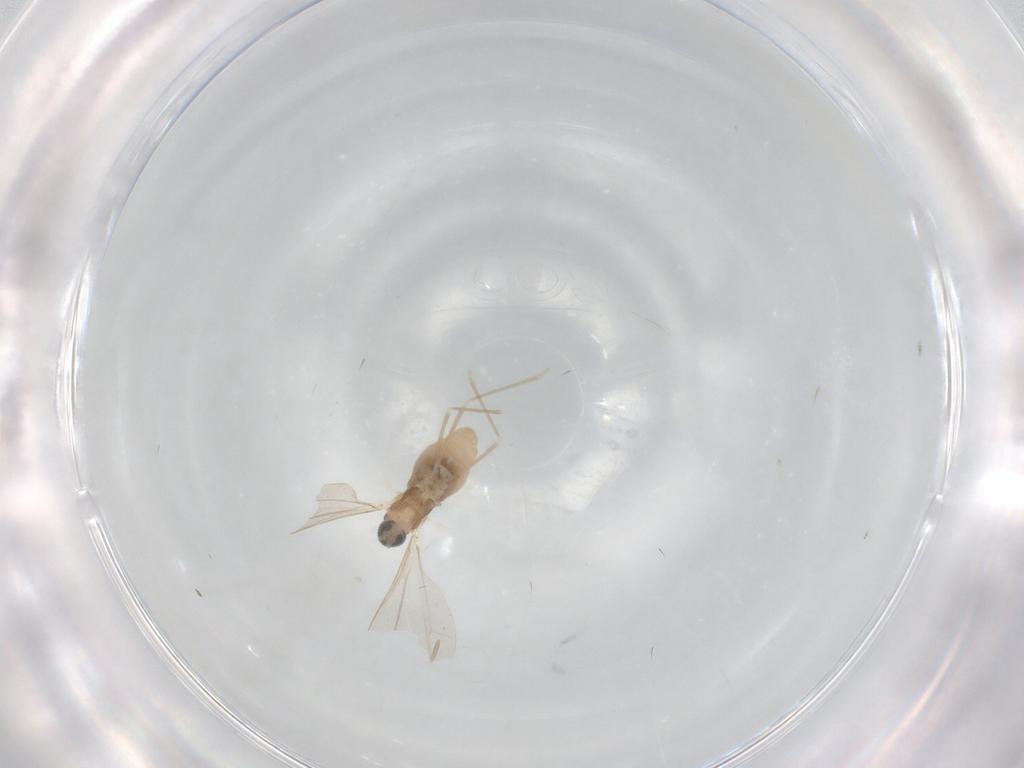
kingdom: Animalia
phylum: Arthropoda
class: Insecta
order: Diptera
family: Cecidomyiidae
